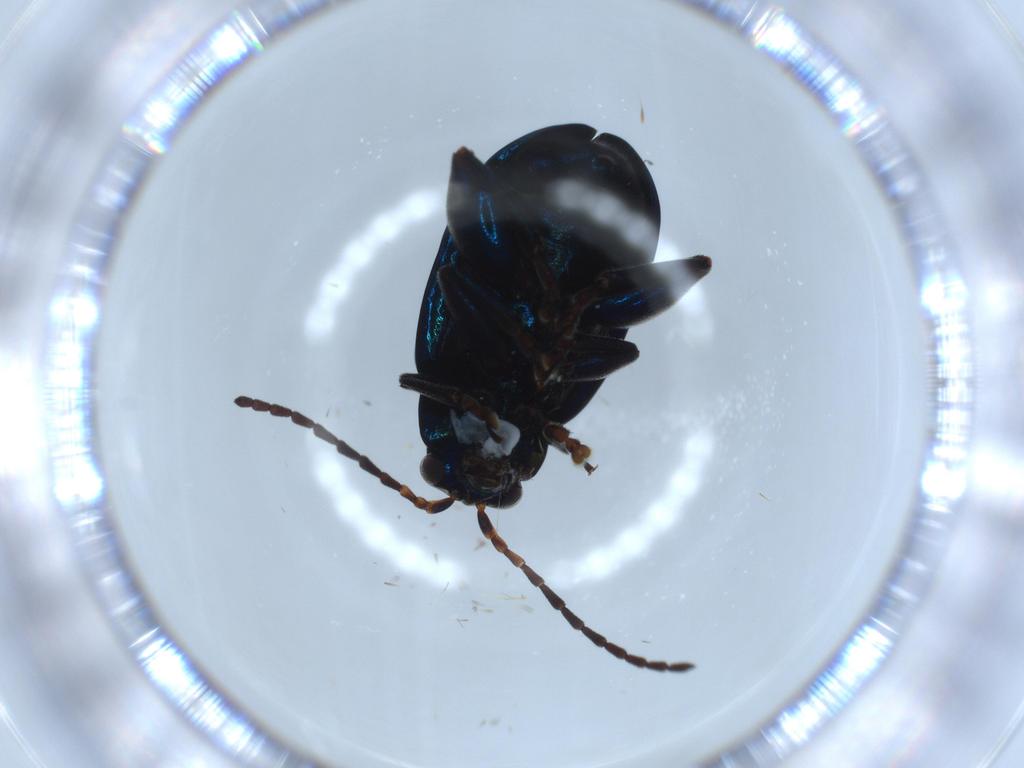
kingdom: Animalia
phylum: Arthropoda
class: Insecta
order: Coleoptera
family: Chrysomelidae
